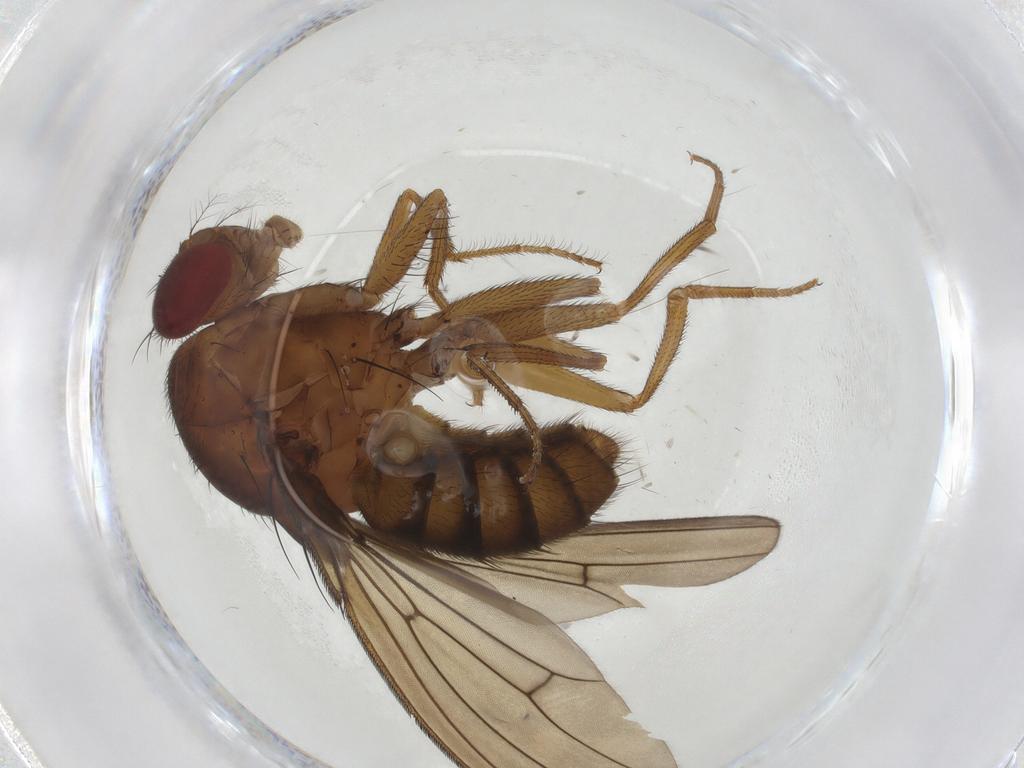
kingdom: Animalia
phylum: Arthropoda
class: Insecta
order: Diptera
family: Drosophilidae
